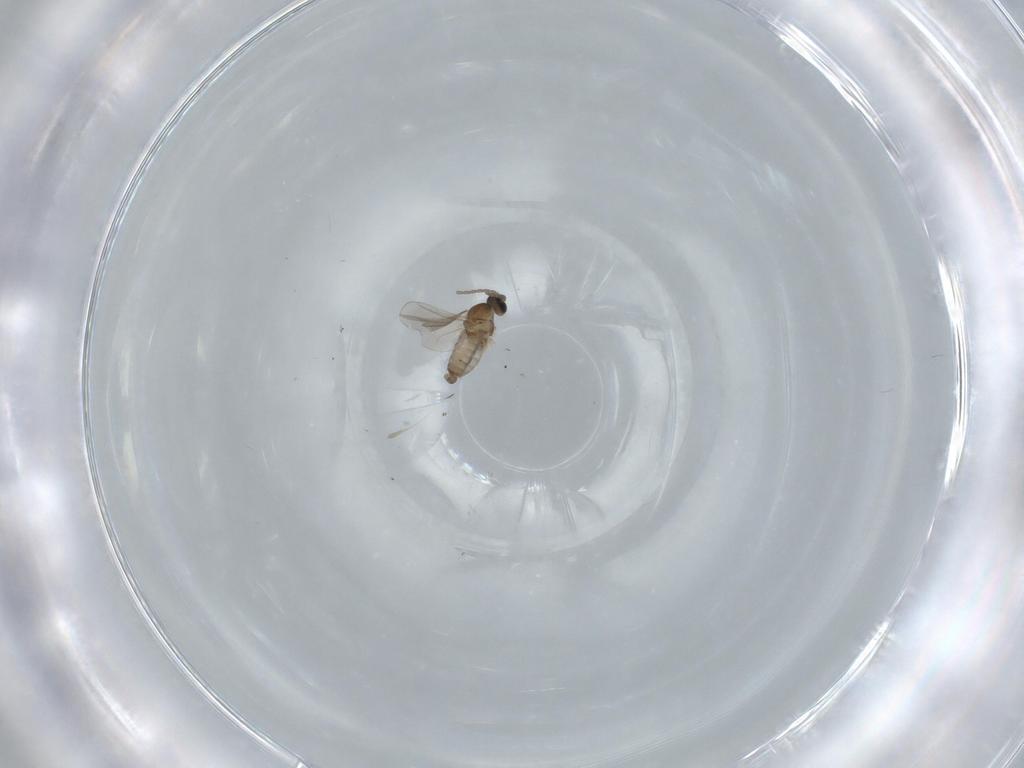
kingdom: Animalia
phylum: Arthropoda
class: Insecta
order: Diptera
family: Cecidomyiidae
